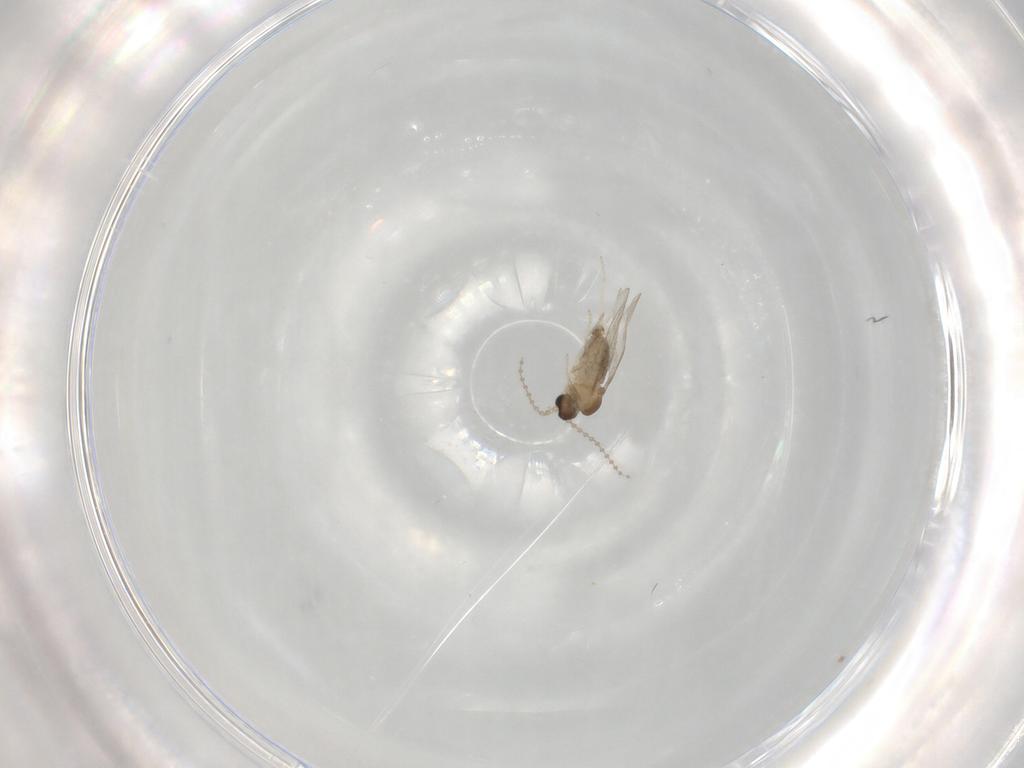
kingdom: Animalia
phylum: Arthropoda
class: Insecta
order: Diptera
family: Cecidomyiidae
